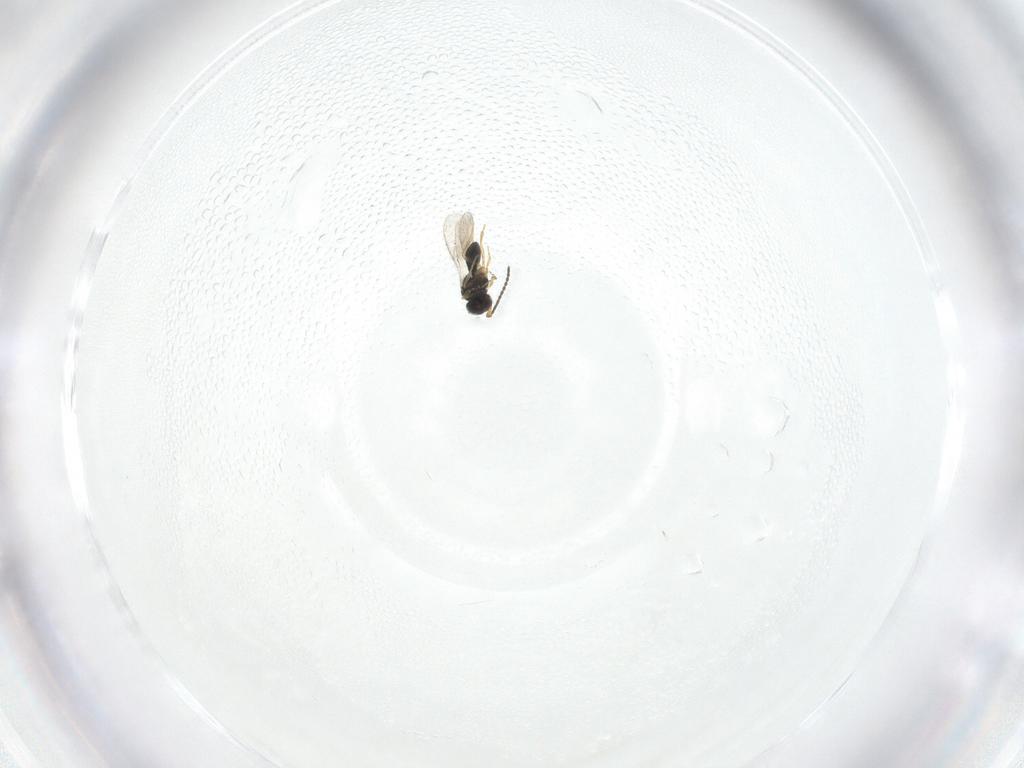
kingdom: Animalia
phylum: Arthropoda
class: Insecta
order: Hymenoptera
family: Scelionidae
